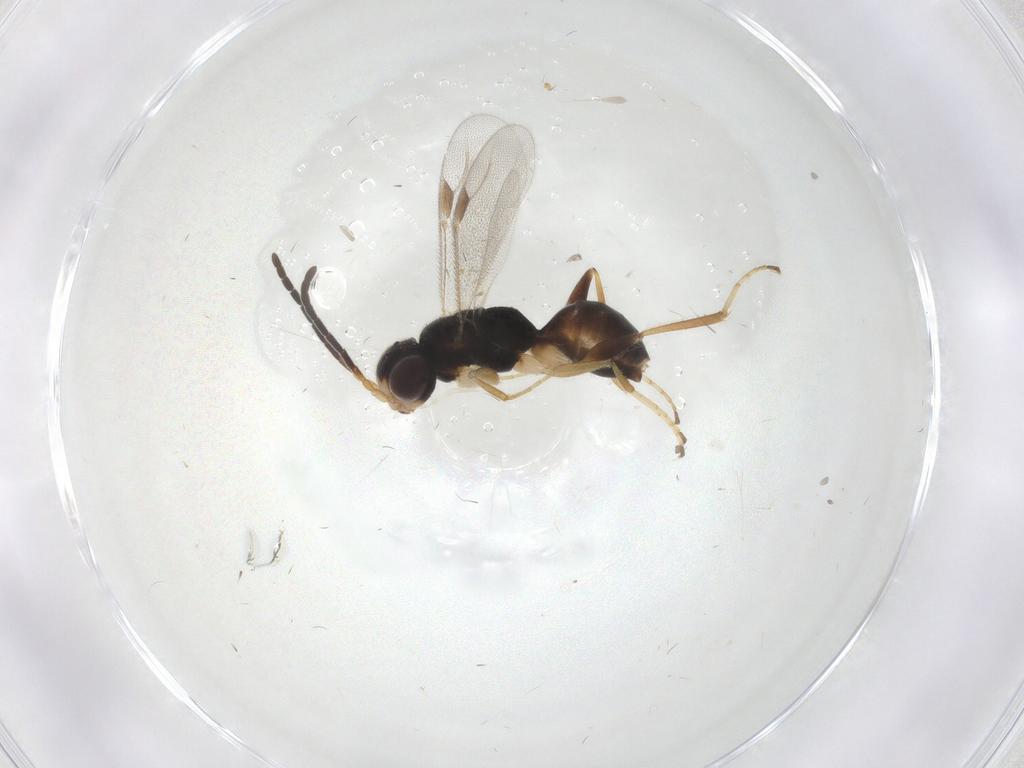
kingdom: Animalia
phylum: Arthropoda
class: Insecta
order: Hymenoptera
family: Dryinidae
